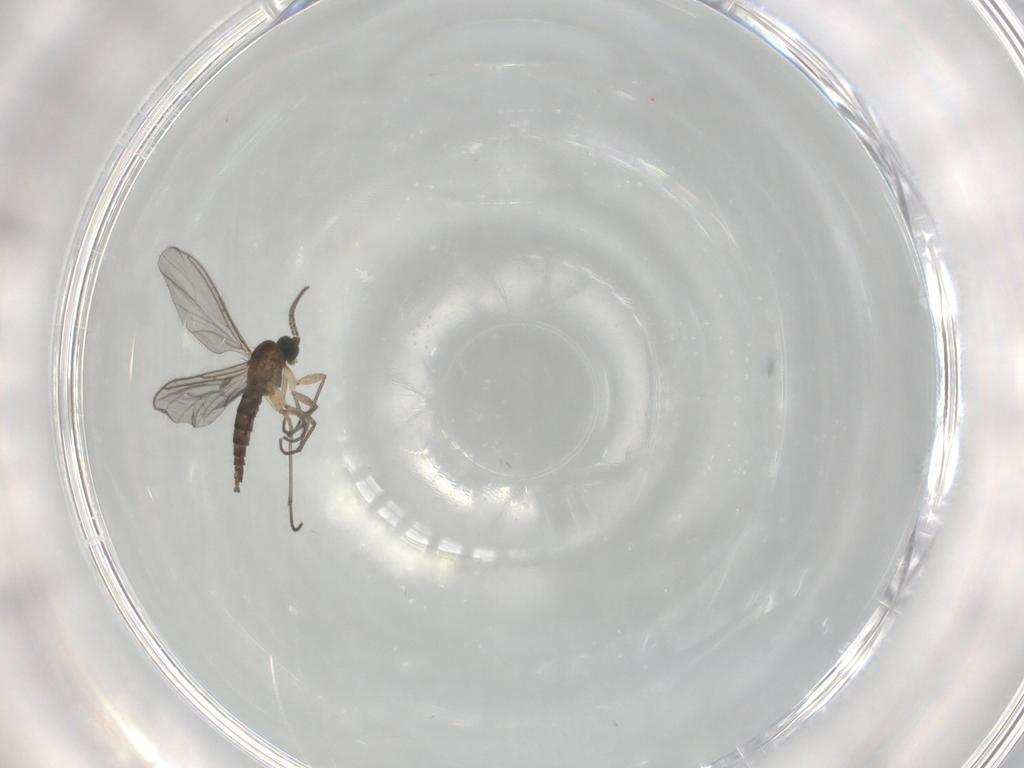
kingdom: Animalia
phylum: Arthropoda
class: Insecta
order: Diptera
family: Sciaridae
